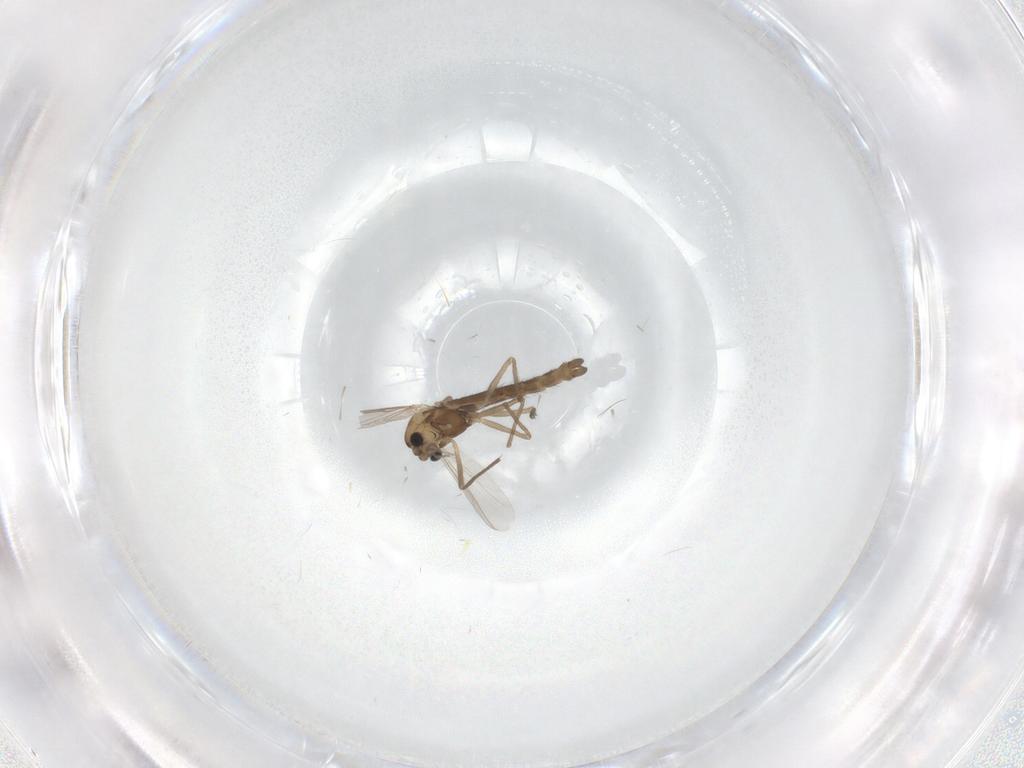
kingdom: Animalia
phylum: Arthropoda
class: Insecta
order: Diptera
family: Chironomidae
